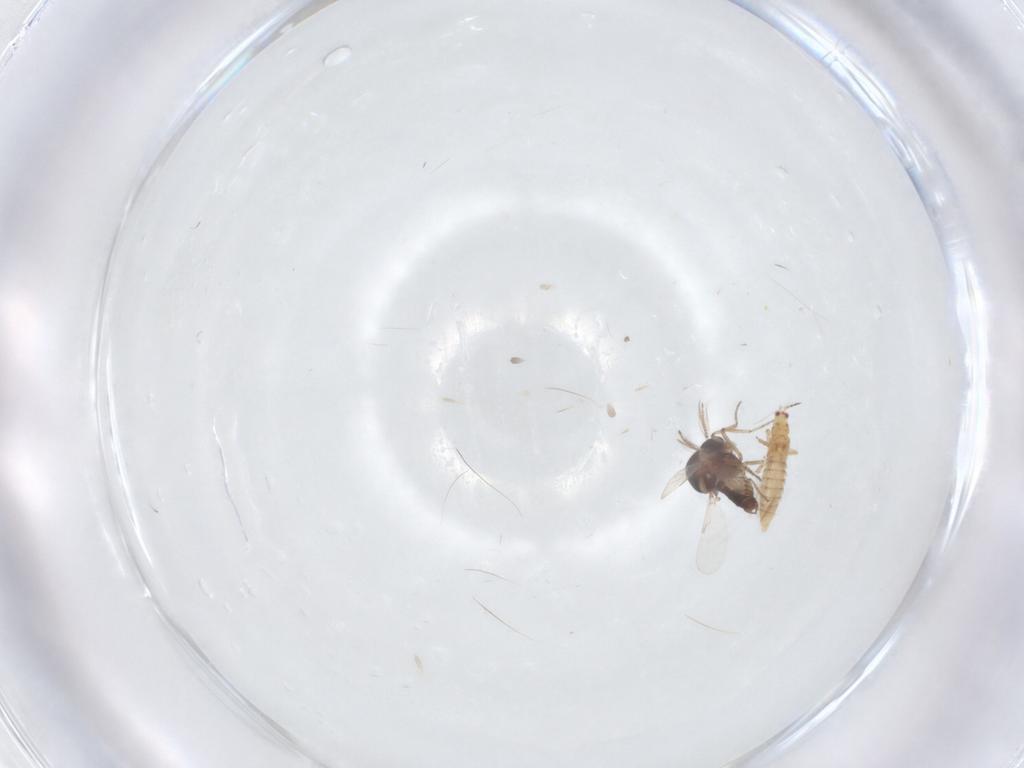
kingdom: Animalia
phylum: Arthropoda
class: Insecta
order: Diptera
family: Ceratopogonidae
